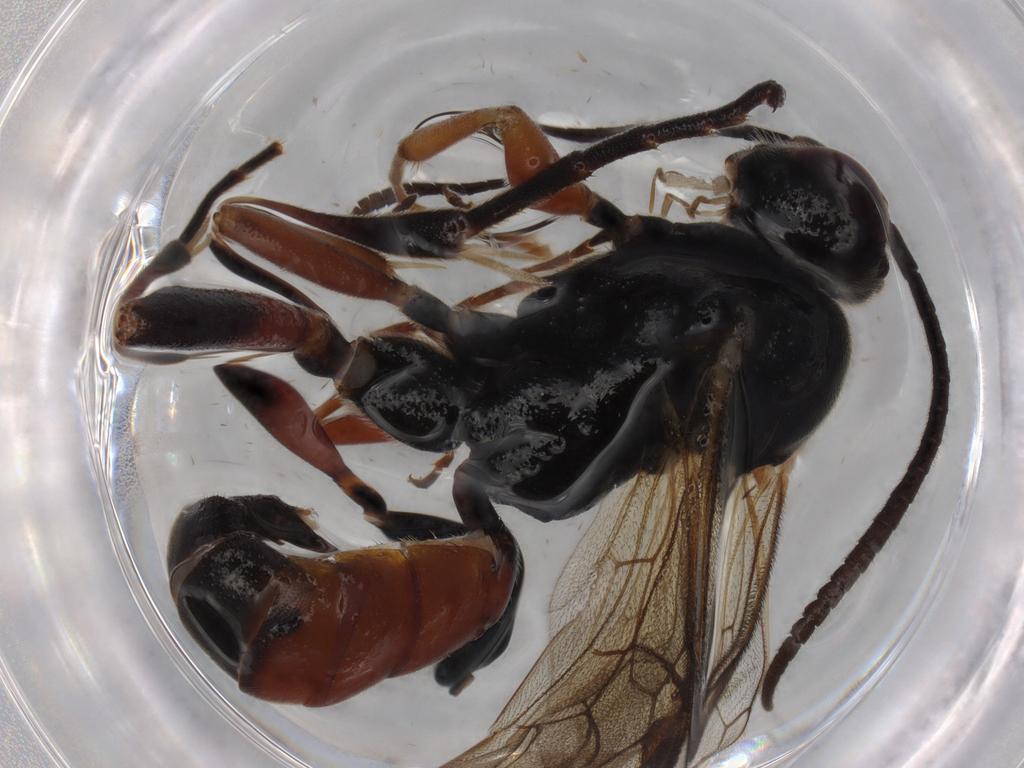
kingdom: Animalia
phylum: Arthropoda
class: Insecta
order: Hymenoptera
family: Ichneumonidae
